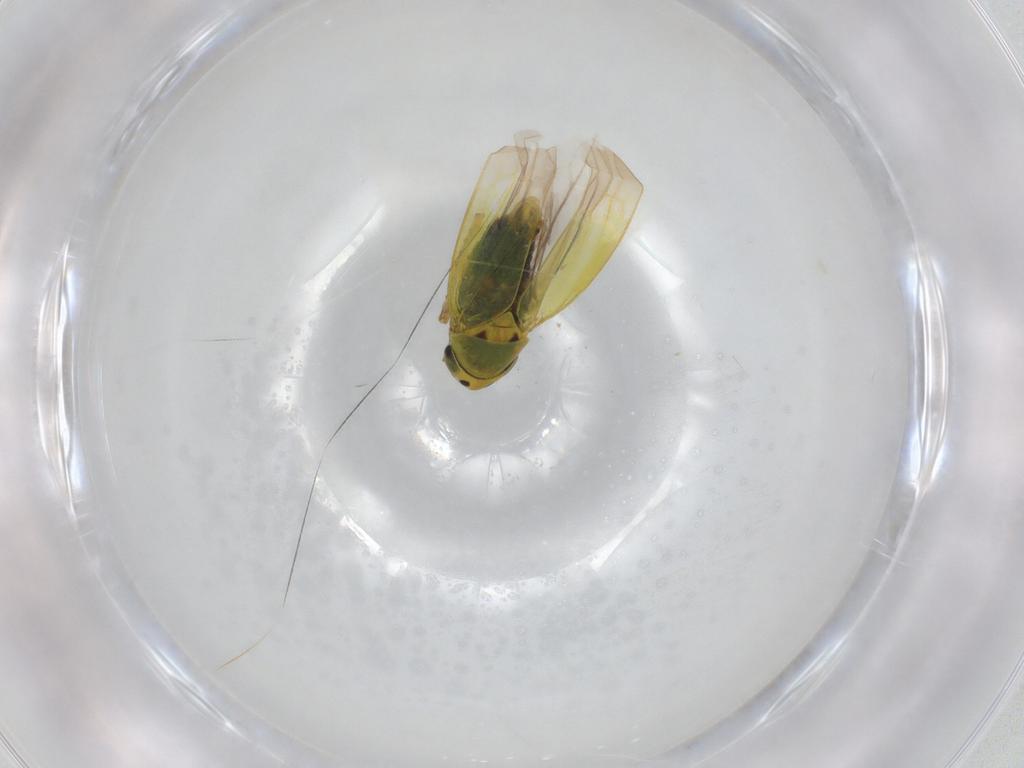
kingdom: Animalia
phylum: Arthropoda
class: Insecta
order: Hemiptera
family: Cicadellidae
